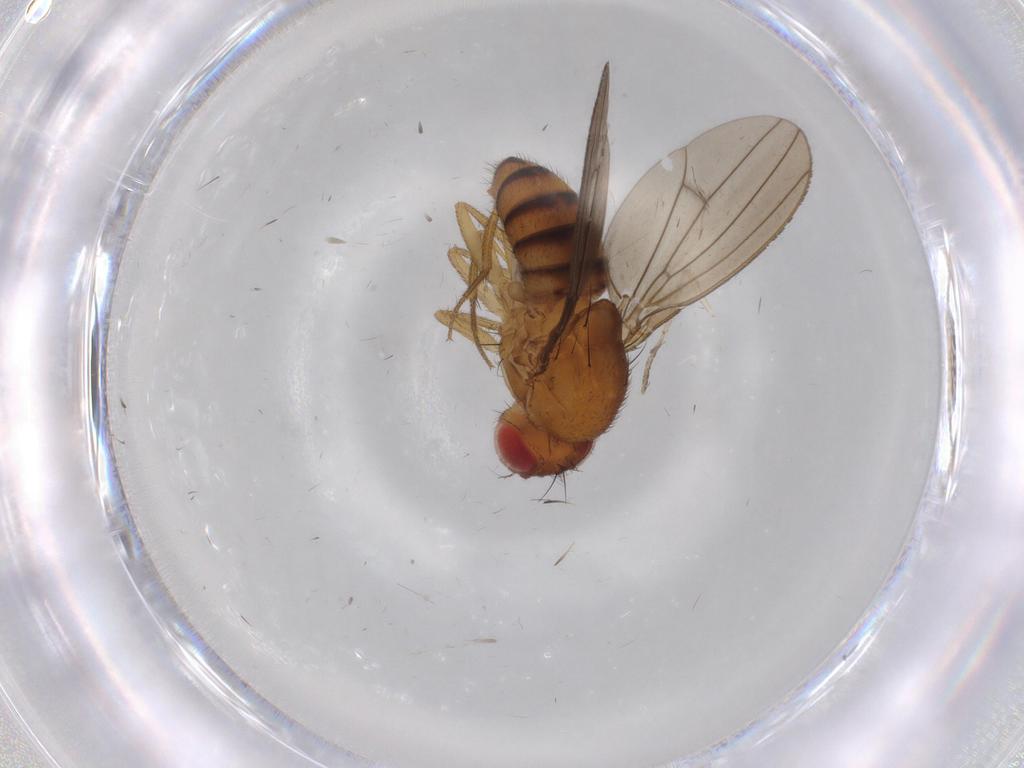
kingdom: Animalia
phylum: Arthropoda
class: Insecta
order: Diptera
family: Drosophilidae
